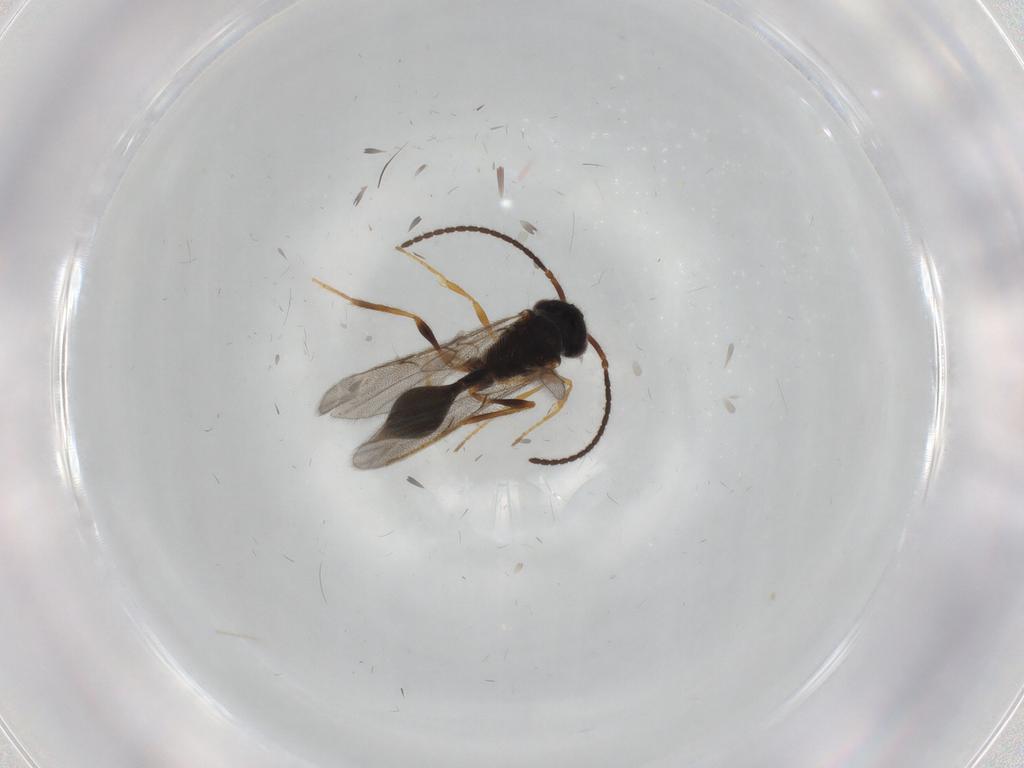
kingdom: Animalia
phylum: Arthropoda
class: Insecta
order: Hymenoptera
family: Diapriidae
